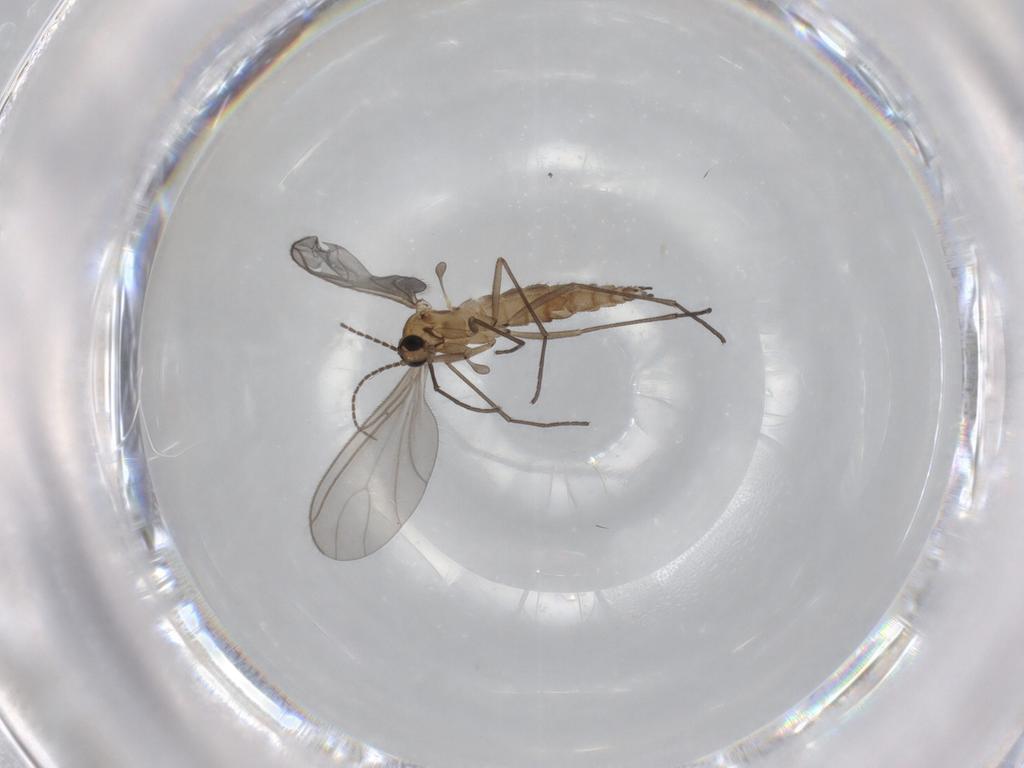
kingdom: Animalia
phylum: Arthropoda
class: Insecta
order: Diptera
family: Sciaridae
